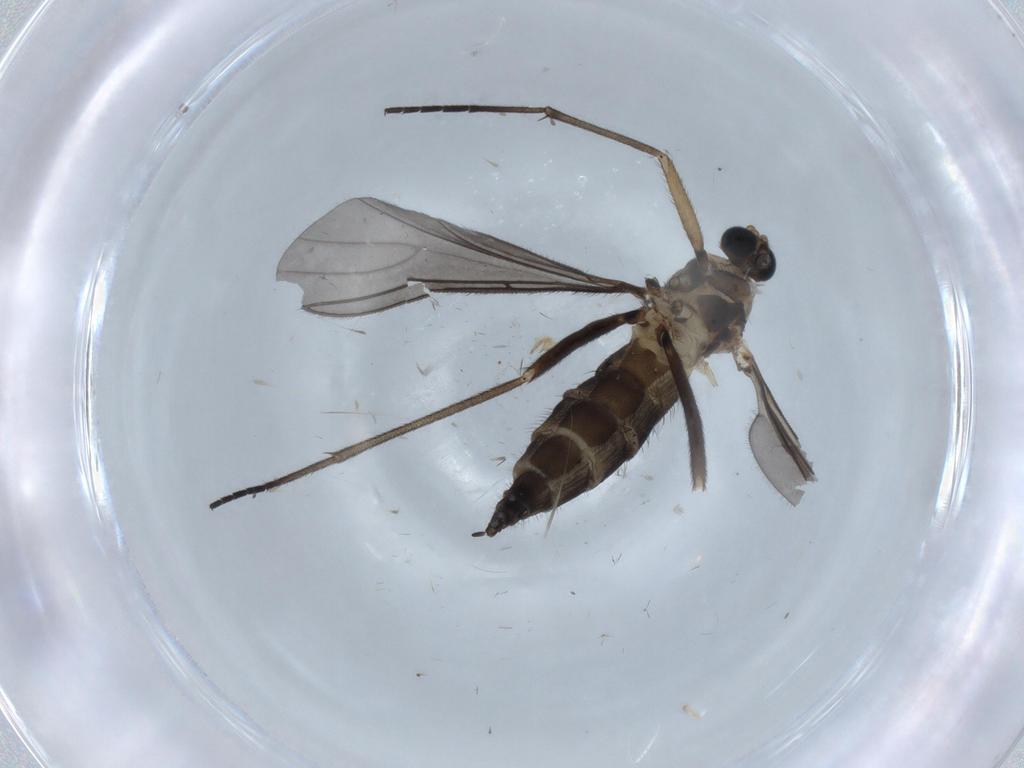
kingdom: Animalia
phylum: Arthropoda
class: Insecta
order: Diptera
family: Sciaridae
